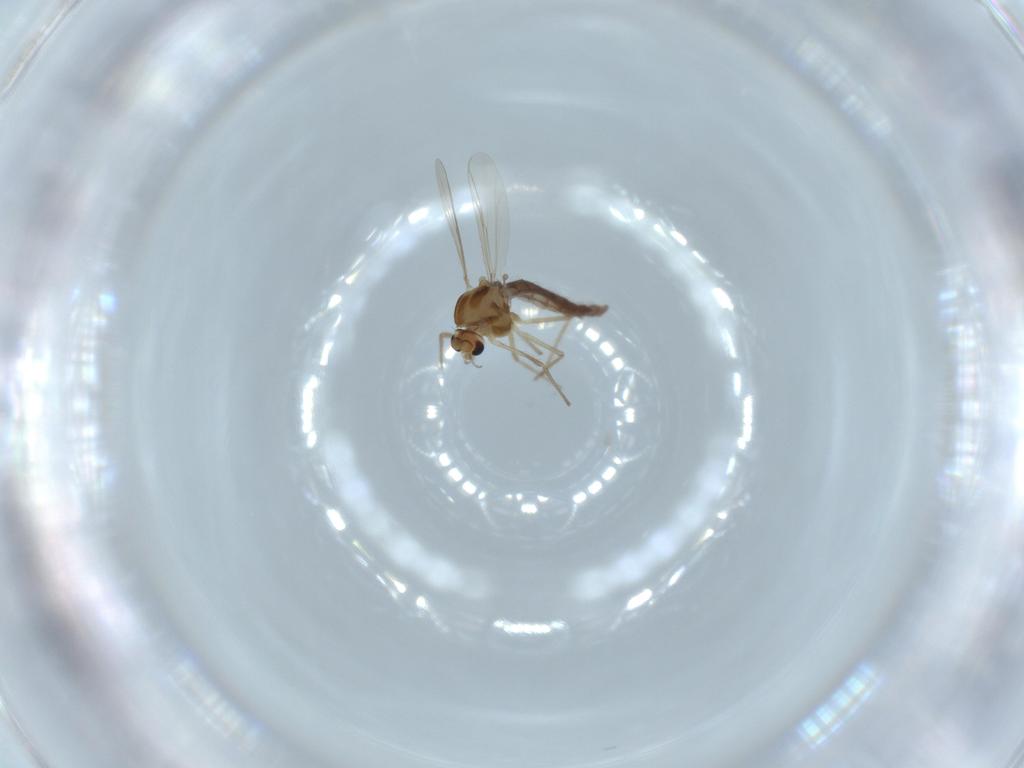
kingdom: Animalia
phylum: Arthropoda
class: Insecta
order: Diptera
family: Chironomidae
